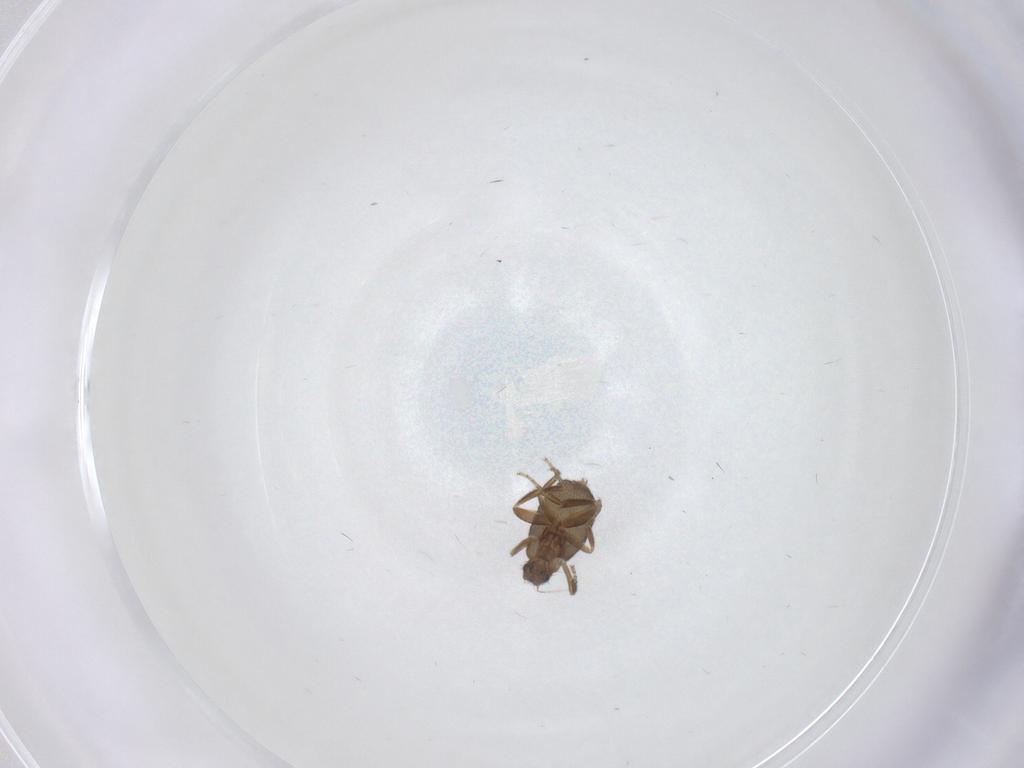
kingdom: Animalia
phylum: Arthropoda
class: Insecta
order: Diptera
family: Phoridae
